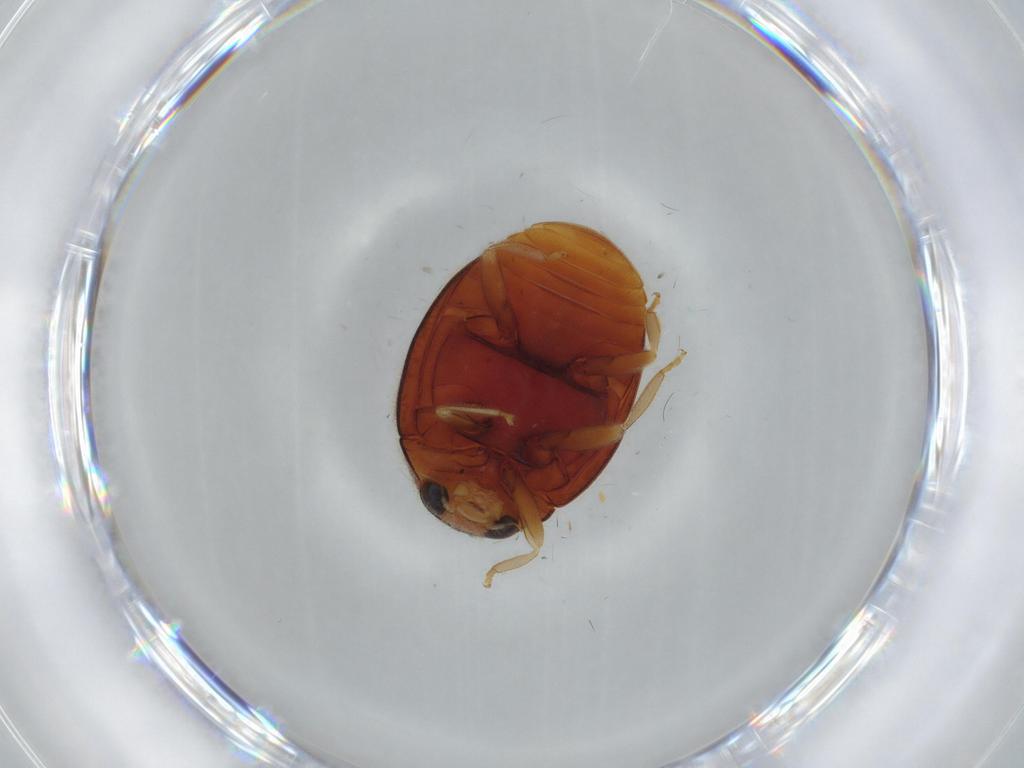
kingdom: Animalia
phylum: Arthropoda
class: Insecta
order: Coleoptera
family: Coccinellidae
